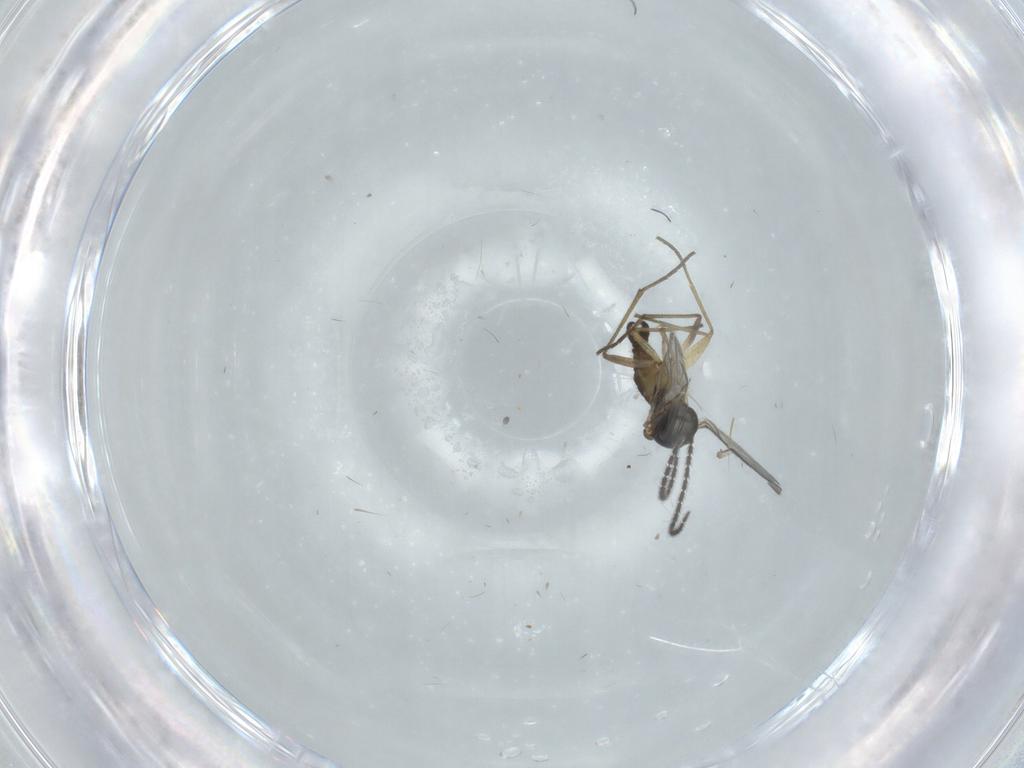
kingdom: Animalia
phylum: Arthropoda
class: Insecta
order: Diptera
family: Sciaridae
